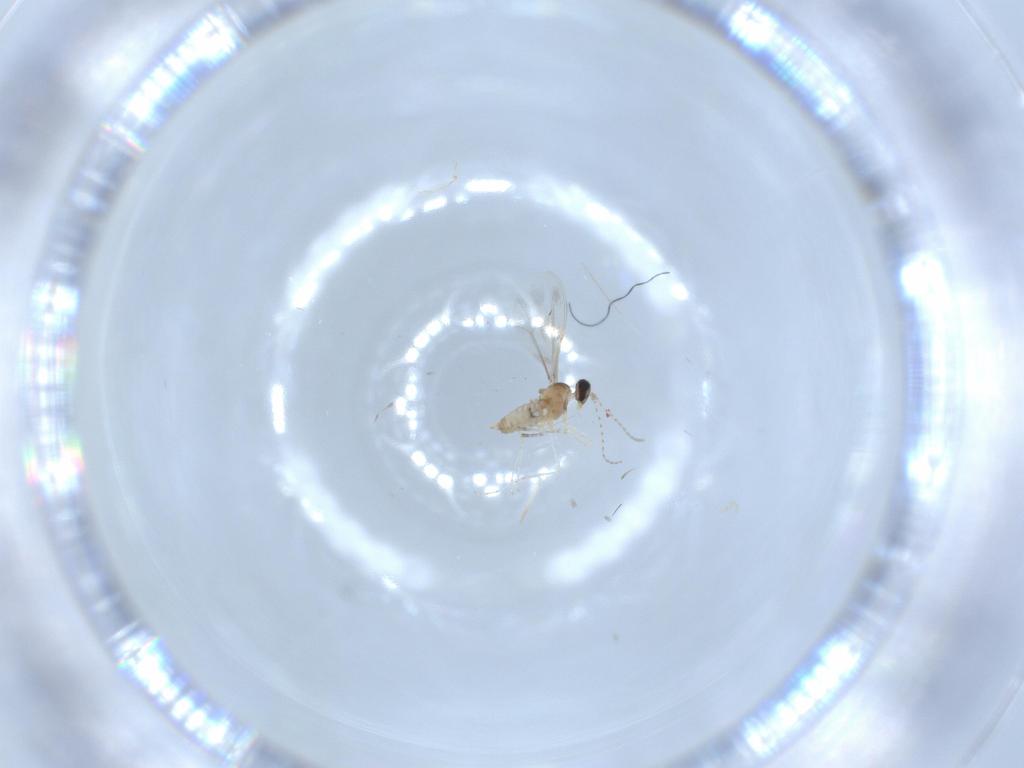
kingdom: Animalia
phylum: Arthropoda
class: Insecta
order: Diptera
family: Cecidomyiidae
